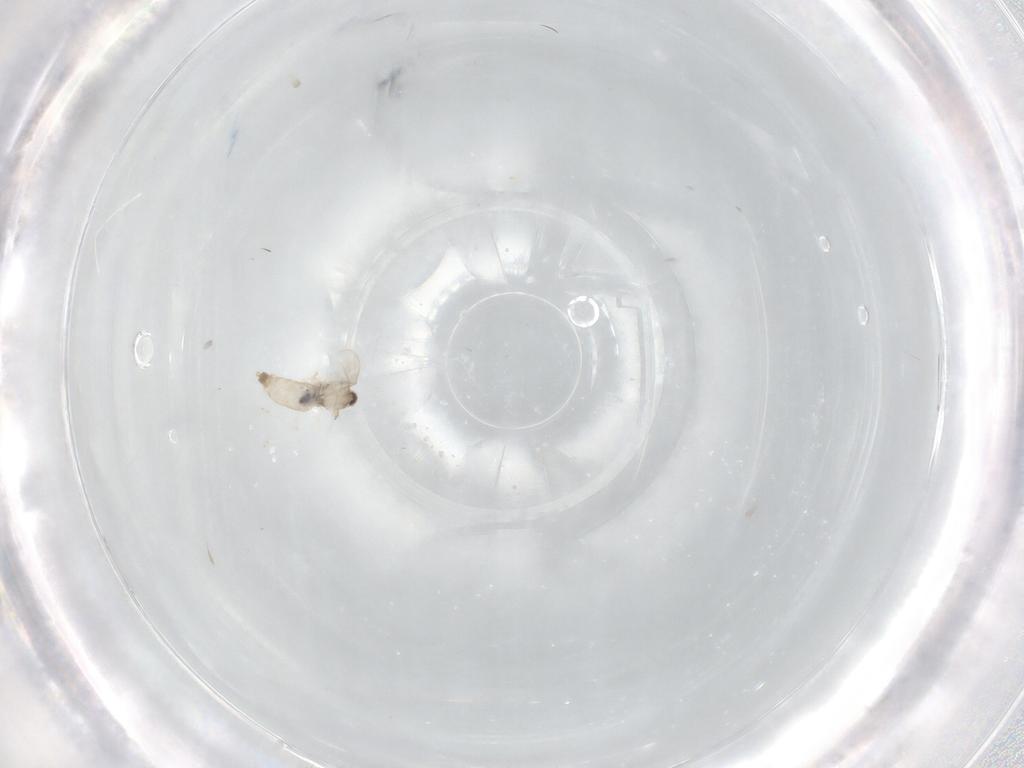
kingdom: Animalia
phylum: Arthropoda
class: Insecta
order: Diptera
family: Cecidomyiidae
